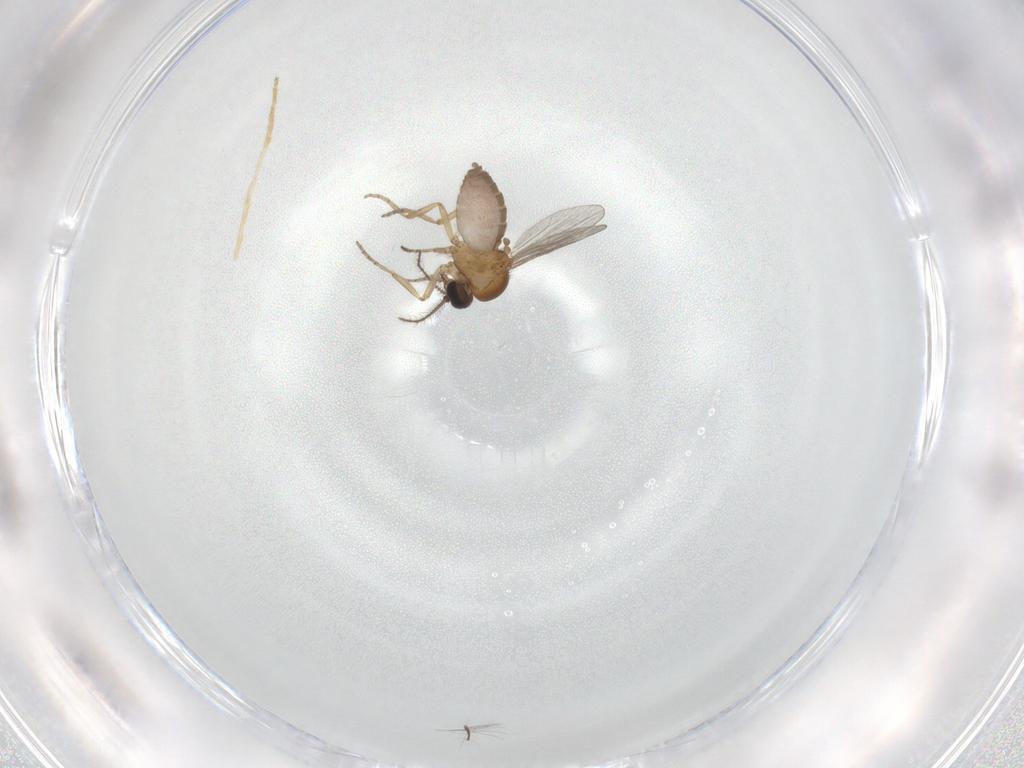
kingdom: Animalia
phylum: Arthropoda
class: Insecta
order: Diptera
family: Ceratopogonidae
